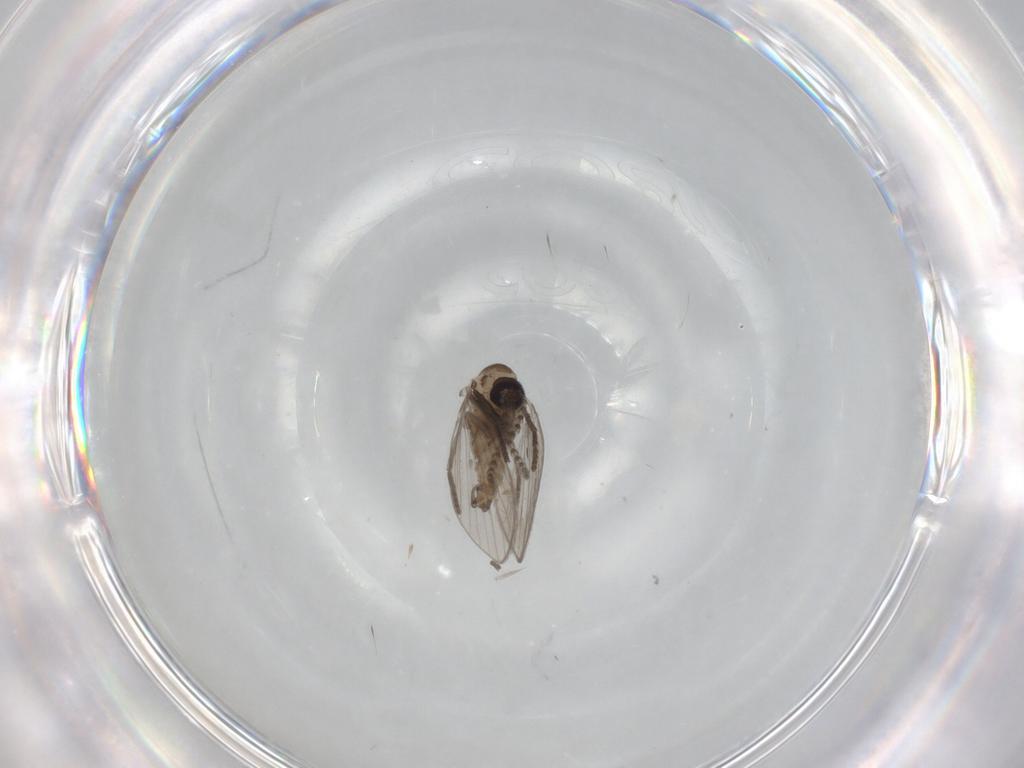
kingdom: Animalia
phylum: Arthropoda
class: Insecta
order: Diptera
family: Psychodidae
